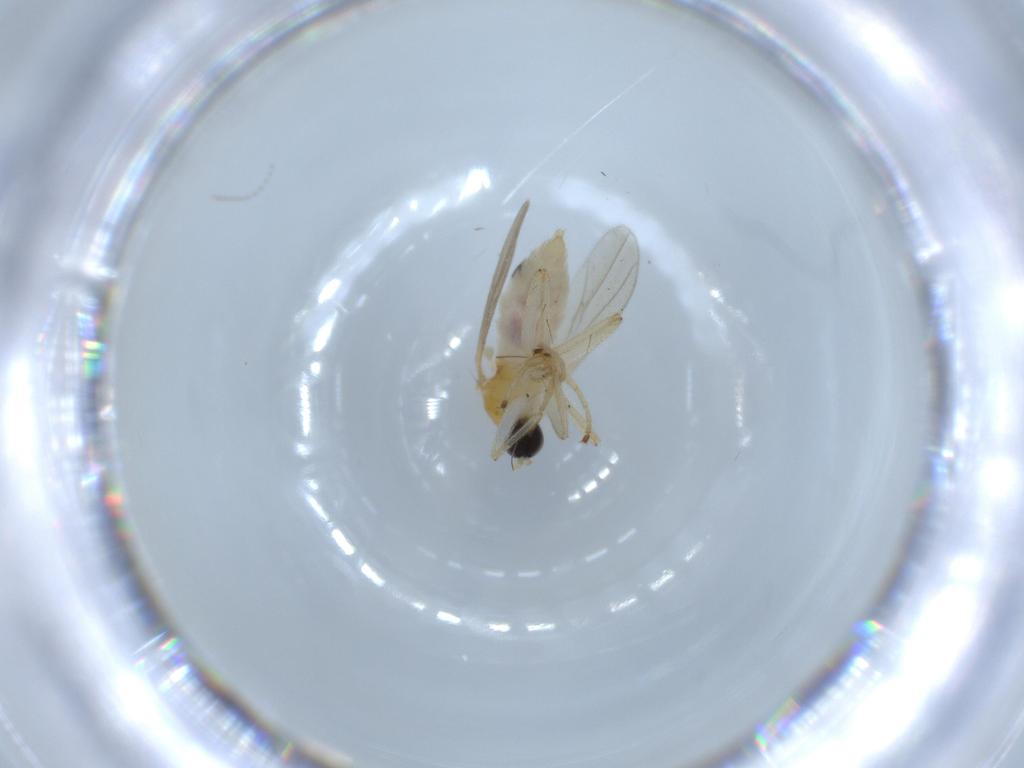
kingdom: Animalia
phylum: Arthropoda
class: Insecta
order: Diptera
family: Hybotidae
